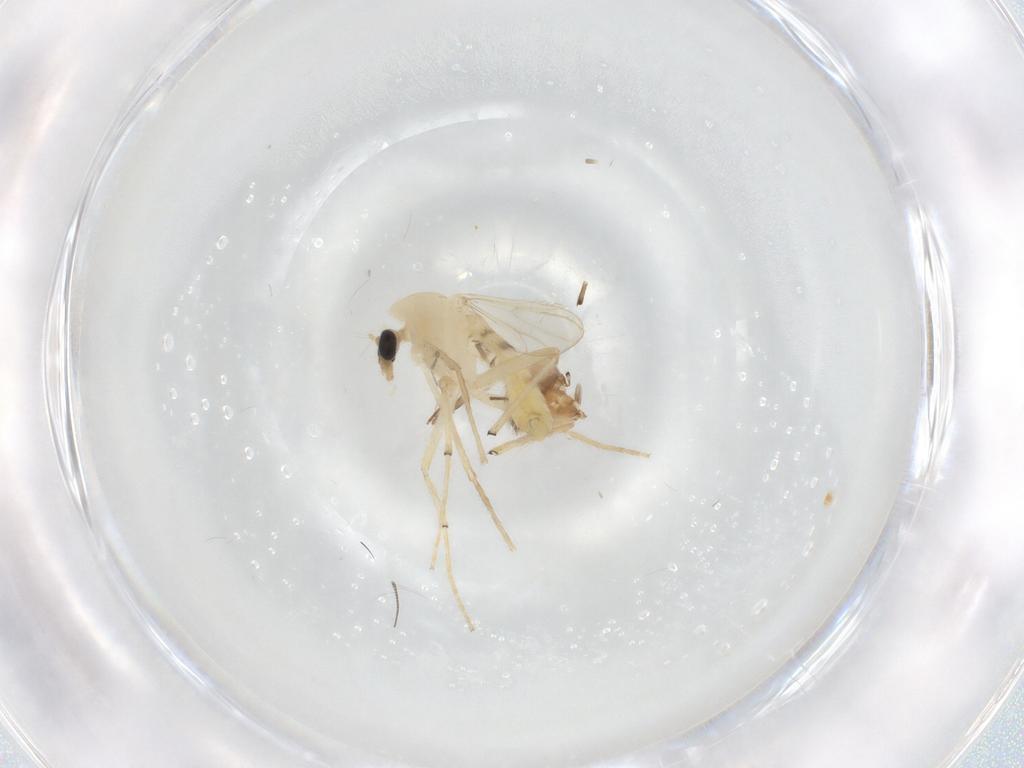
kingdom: Animalia
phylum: Arthropoda
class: Insecta
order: Diptera
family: Chironomidae
